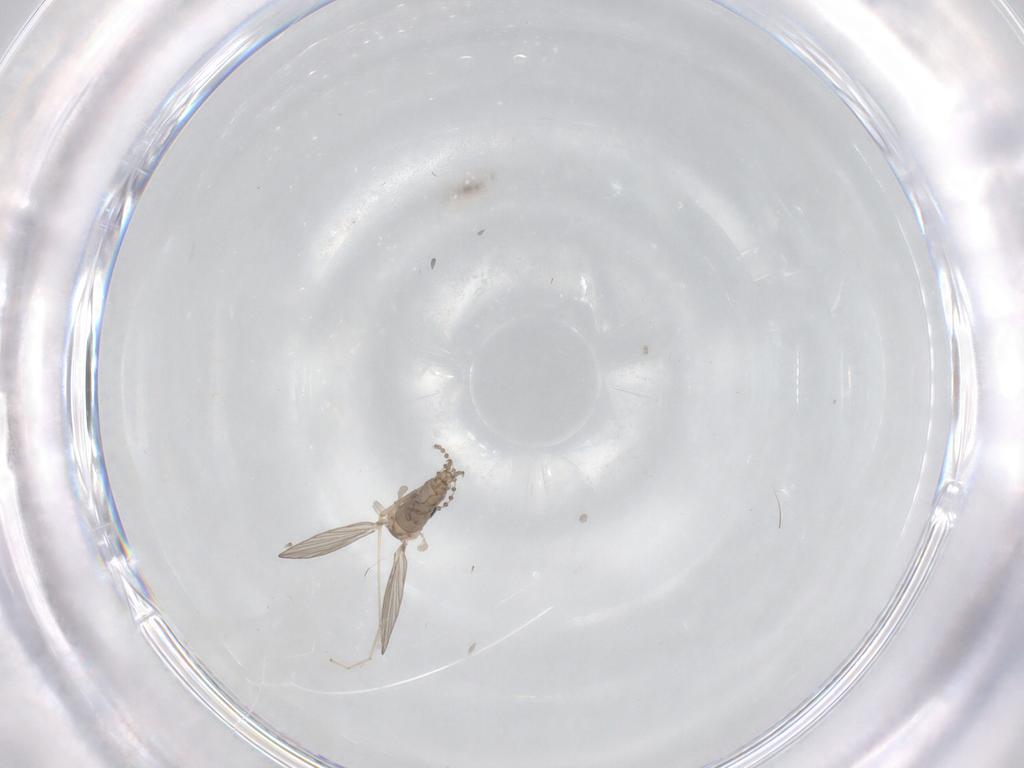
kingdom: Animalia
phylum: Arthropoda
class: Insecta
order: Diptera
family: Psychodidae
